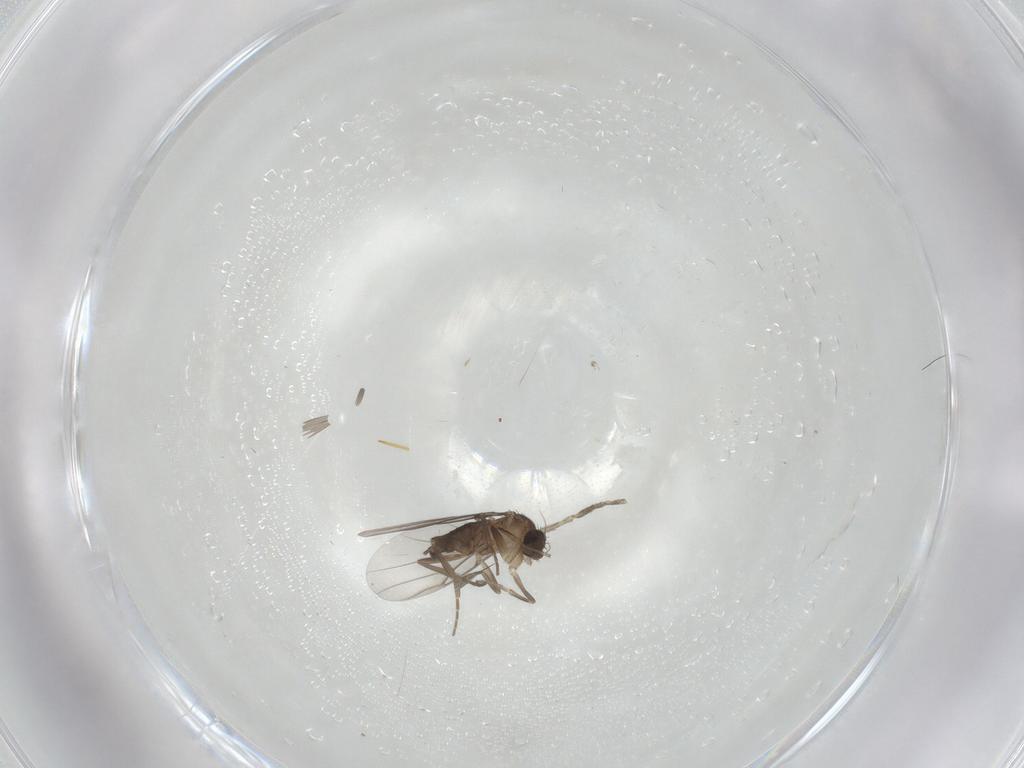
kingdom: Animalia
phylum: Arthropoda
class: Insecta
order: Diptera
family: Phoridae
